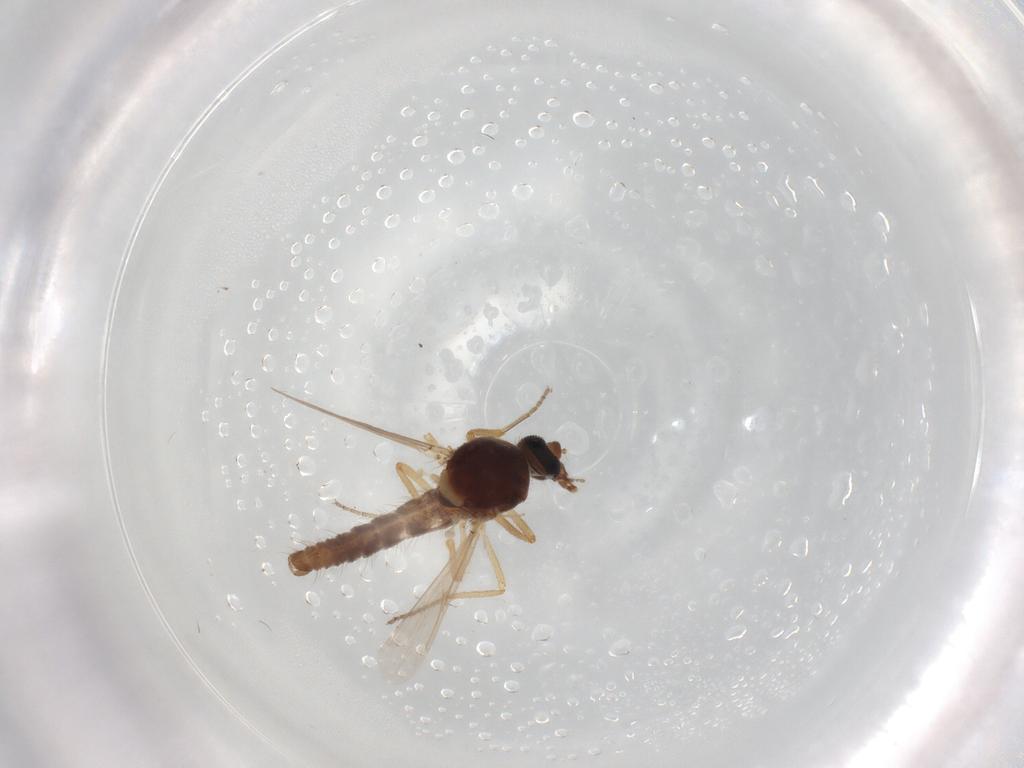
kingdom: Animalia
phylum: Arthropoda
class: Insecta
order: Diptera
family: Ceratopogonidae
